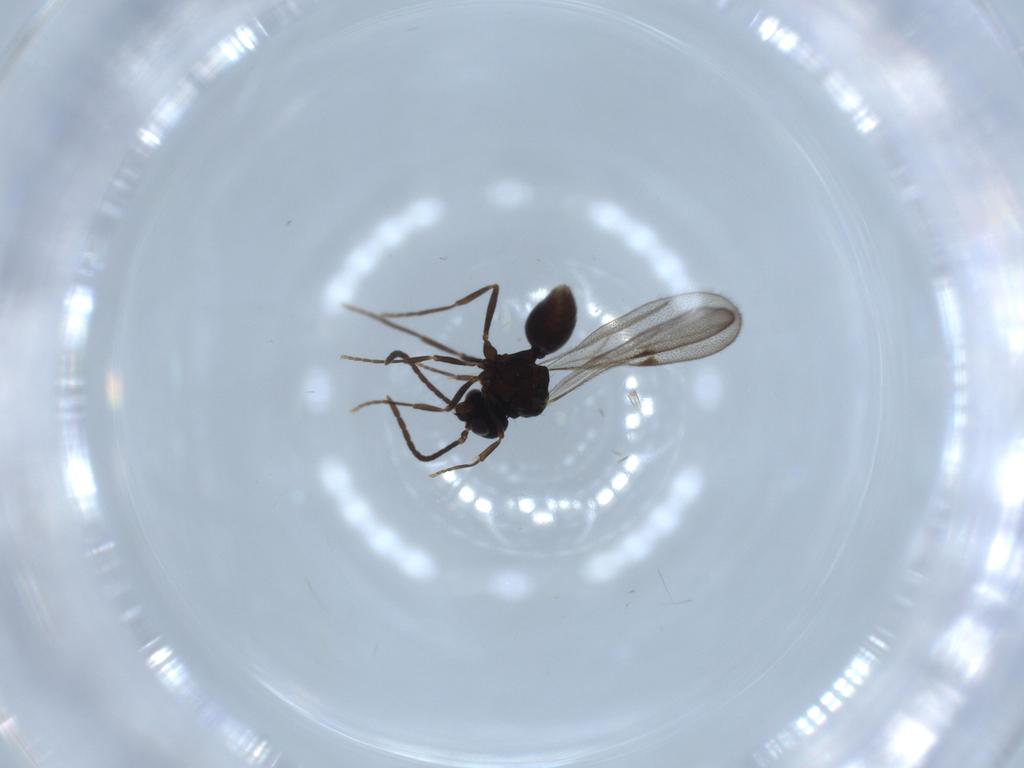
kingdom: Animalia
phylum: Arthropoda
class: Insecta
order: Hymenoptera
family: Formicidae
